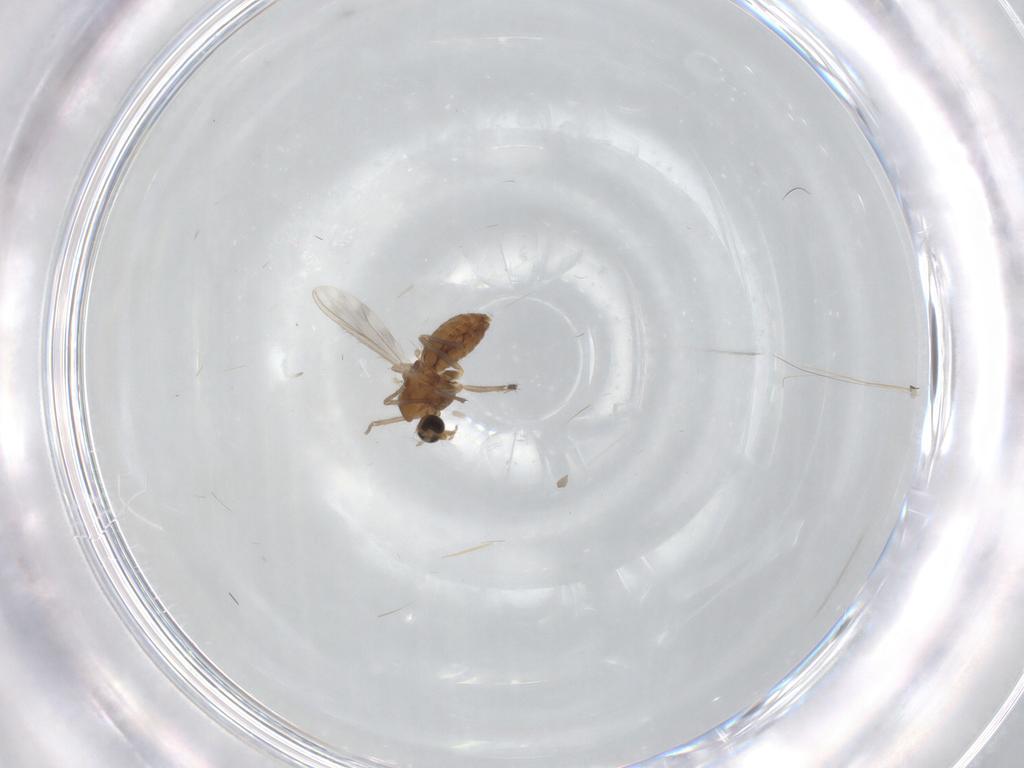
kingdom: Animalia
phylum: Arthropoda
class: Insecta
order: Diptera
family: Chironomidae
